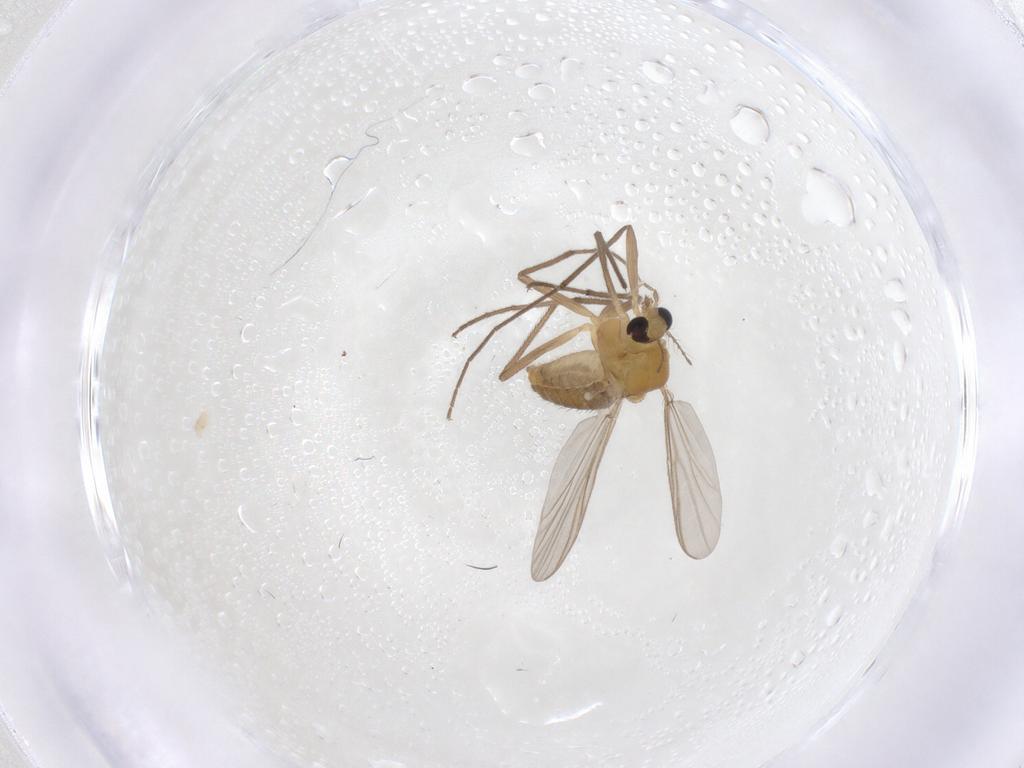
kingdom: Animalia
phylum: Arthropoda
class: Insecta
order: Diptera
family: Chironomidae
